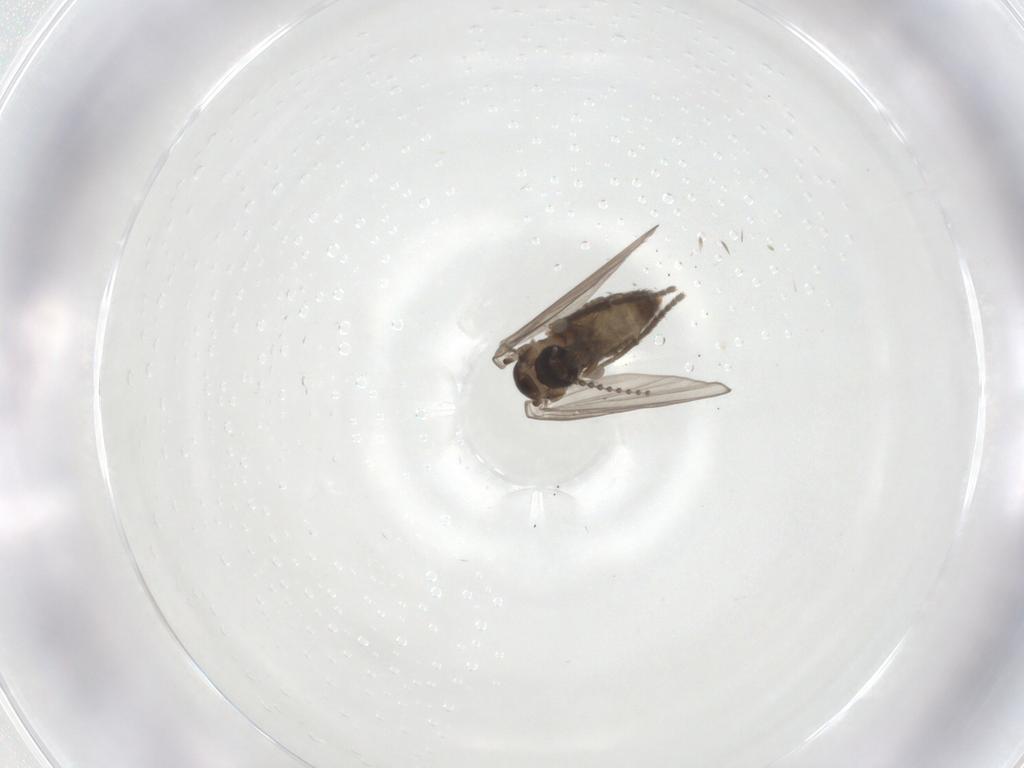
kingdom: Animalia
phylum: Arthropoda
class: Insecta
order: Diptera
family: Psychodidae
